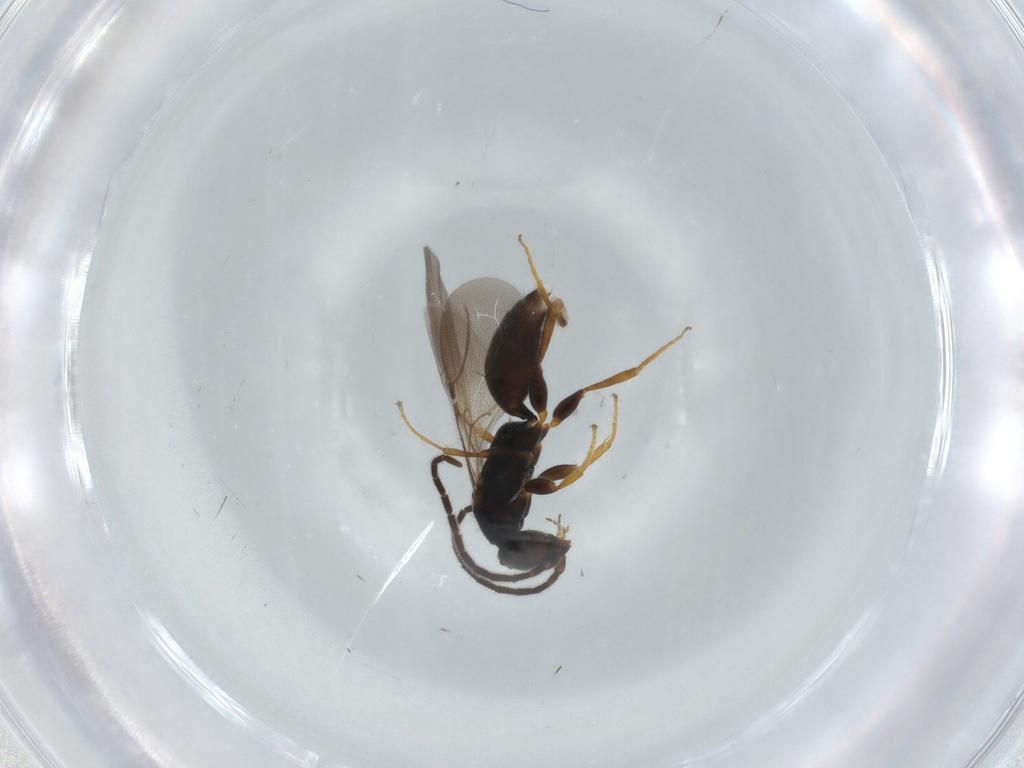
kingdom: Animalia
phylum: Arthropoda
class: Insecta
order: Hymenoptera
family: Bethylidae
